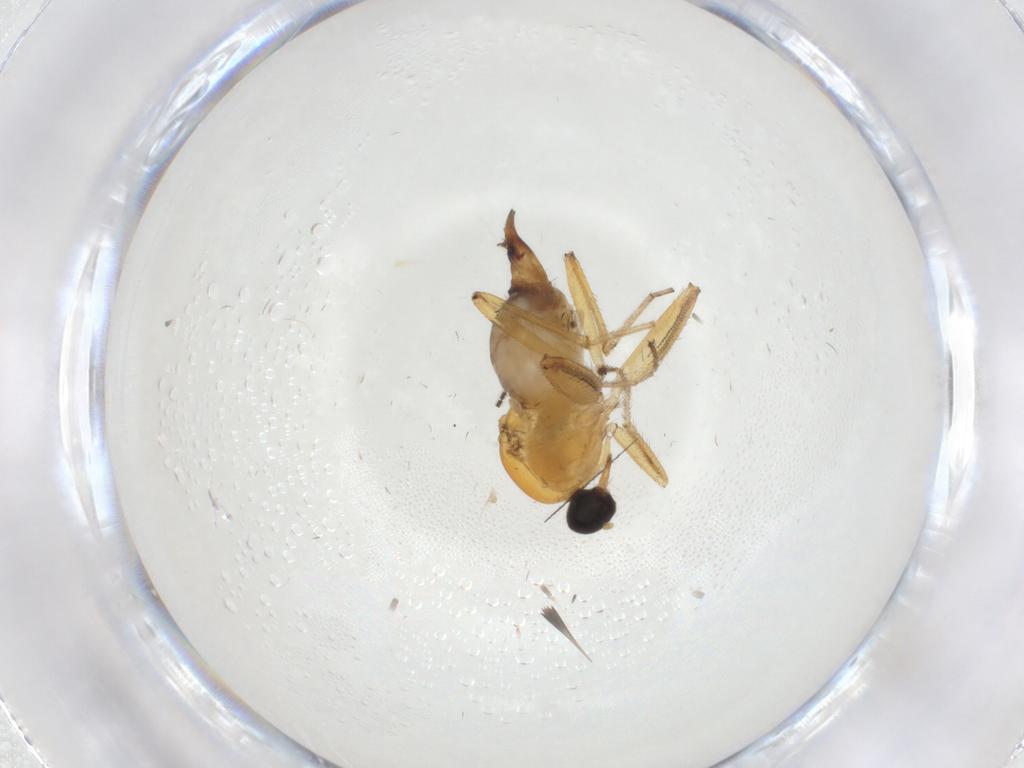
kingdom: Animalia
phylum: Arthropoda
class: Insecta
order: Diptera
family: Hybotidae
